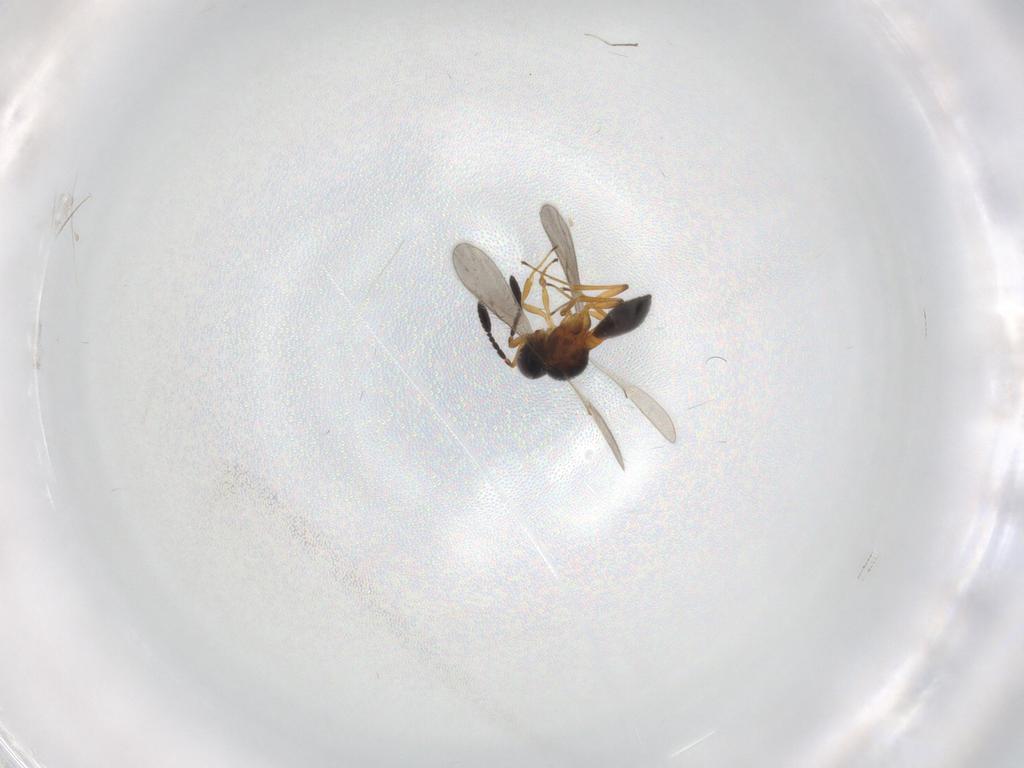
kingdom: Animalia
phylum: Arthropoda
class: Insecta
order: Hymenoptera
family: Scelionidae
